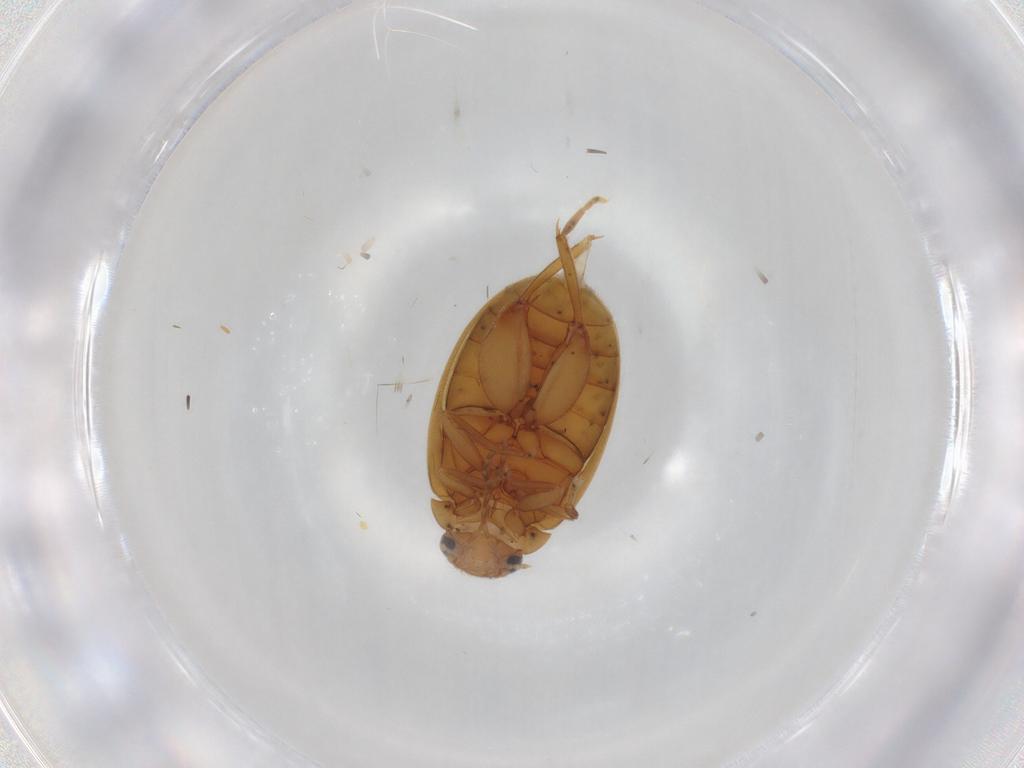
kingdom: Animalia
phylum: Arthropoda
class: Insecta
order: Coleoptera
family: Scirtidae
